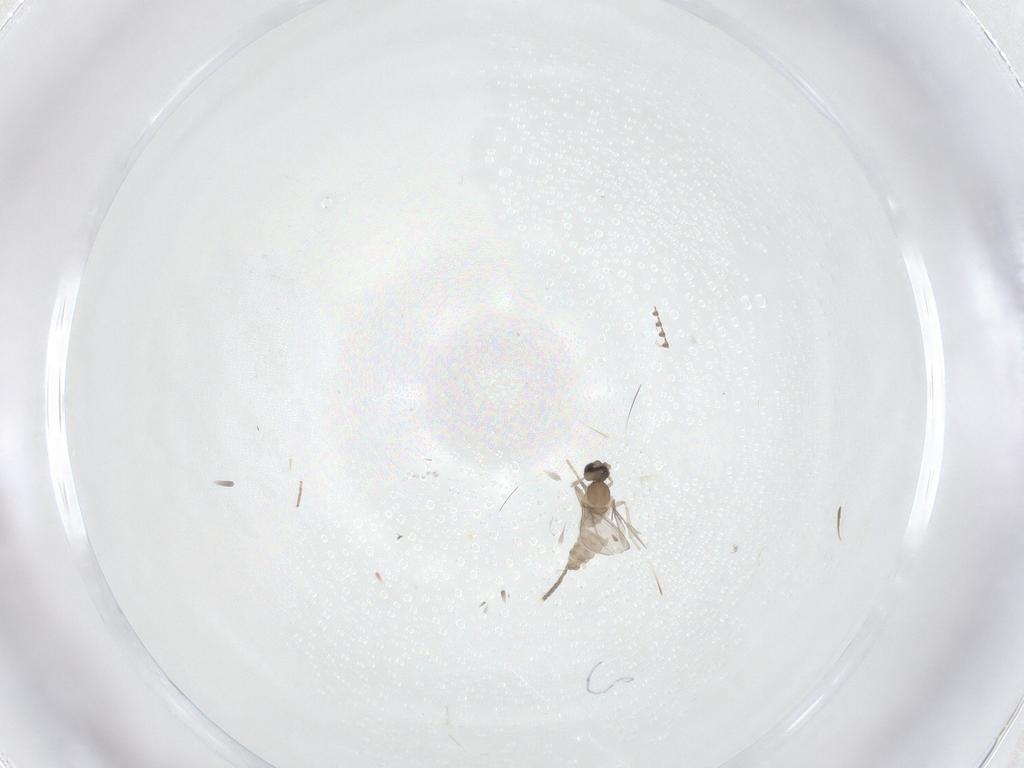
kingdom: Animalia
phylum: Arthropoda
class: Insecta
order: Diptera
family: Cecidomyiidae
